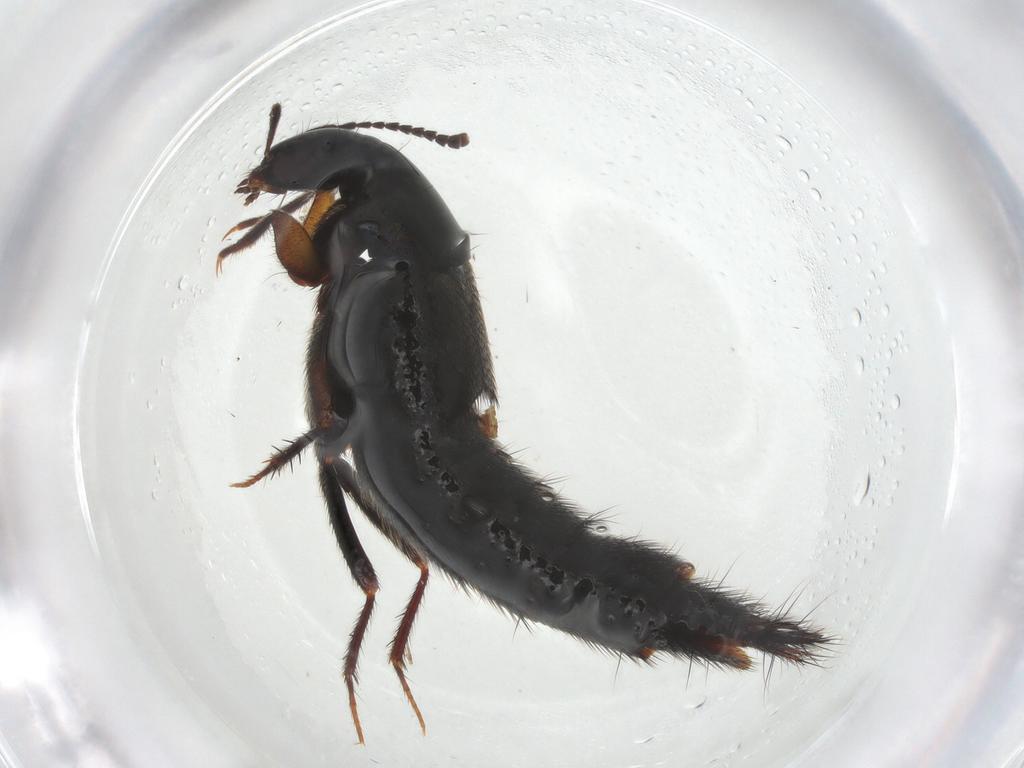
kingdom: Animalia
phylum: Arthropoda
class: Insecta
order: Coleoptera
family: Staphylinidae
